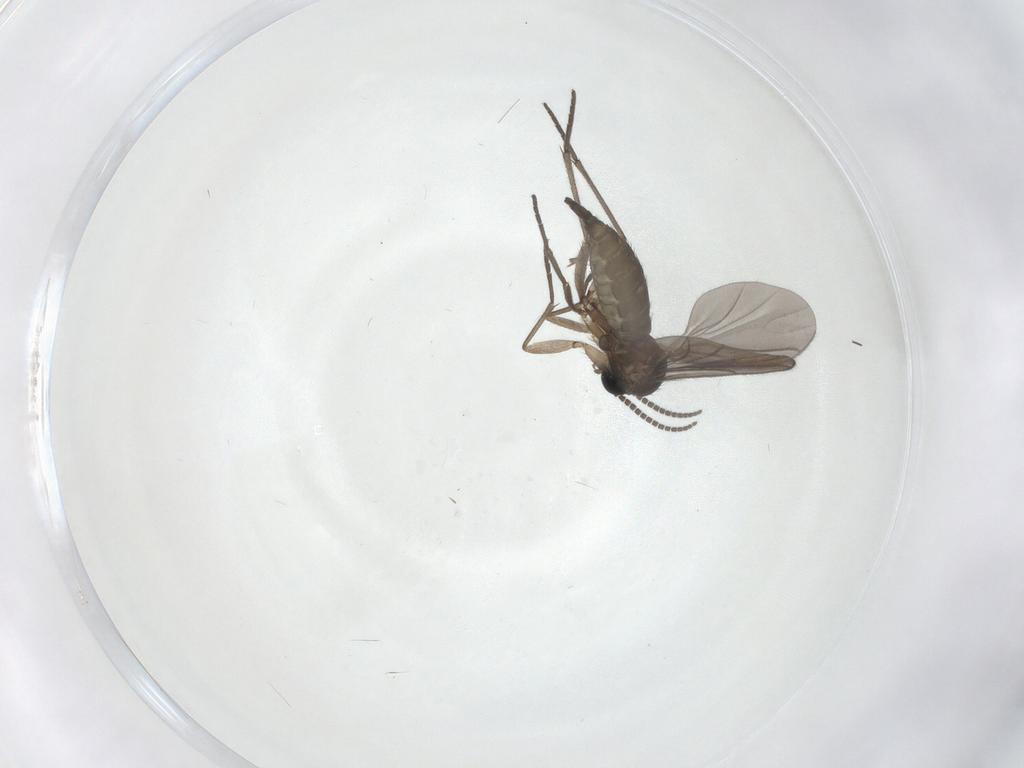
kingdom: Animalia
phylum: Arthropoda
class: Insecta
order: Diptera
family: Sciaridae
